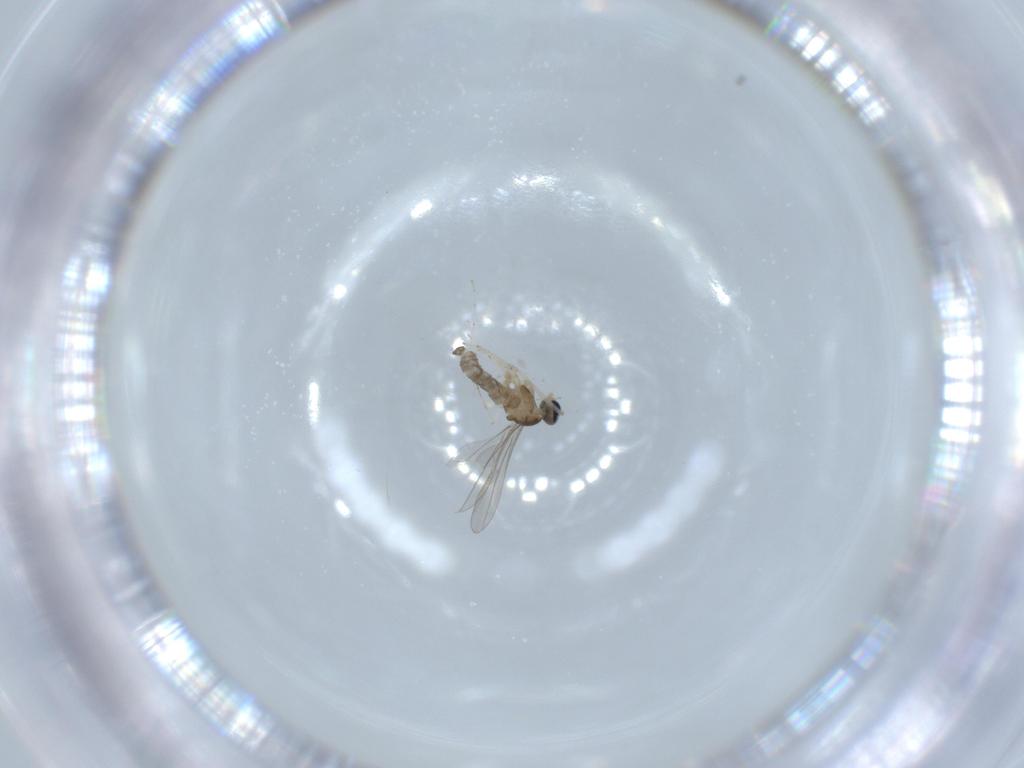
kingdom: Animalia
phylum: Arthropoda
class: Insecta
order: Diptera
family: Cecidomyiidae
